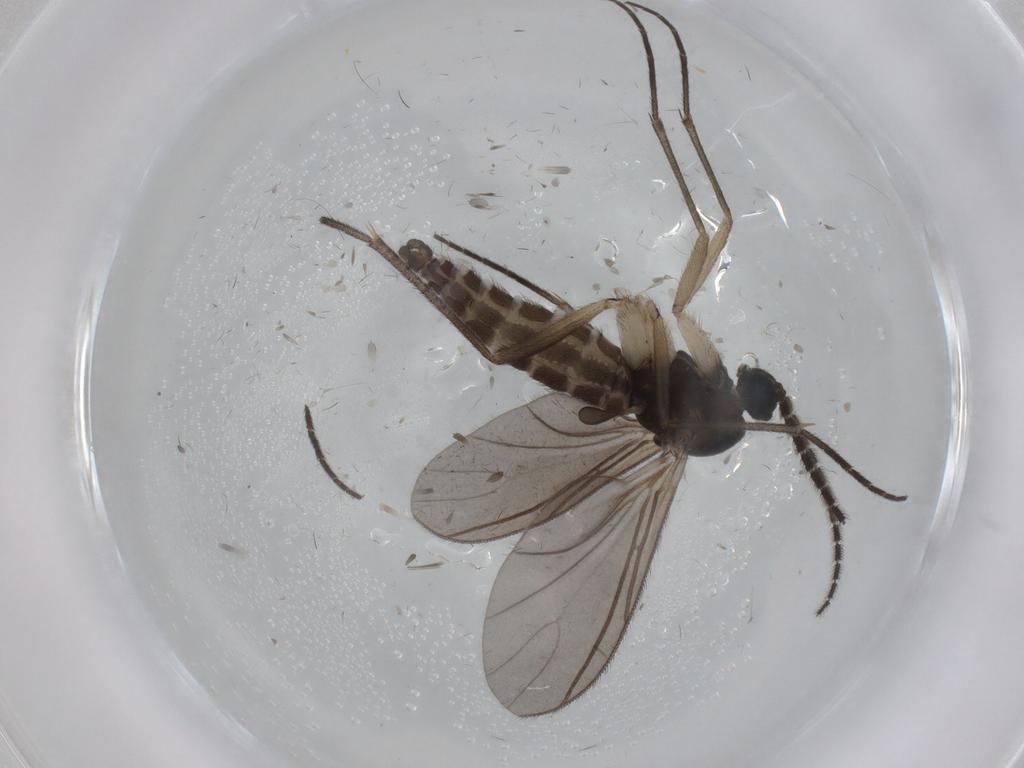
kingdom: Animalia
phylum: Arthropoda
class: Insecta
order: Diptera
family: Sciaridae
